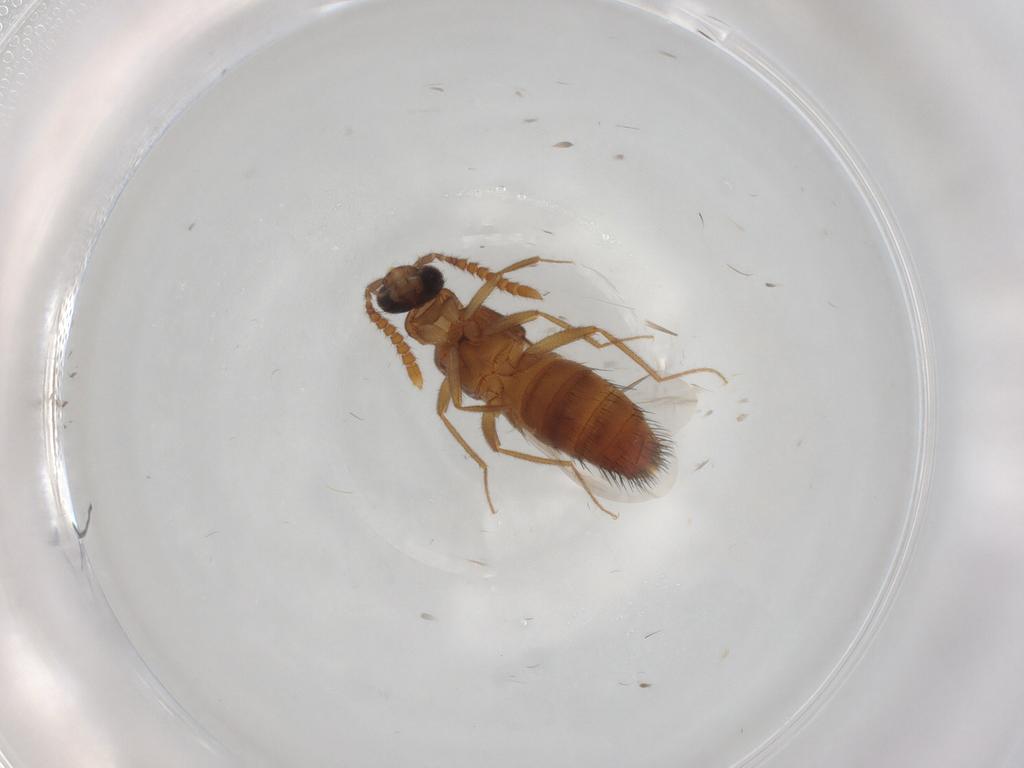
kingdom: Animalia
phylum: Arthropoda
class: Insecta
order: Coleoptera
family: Staphylinidae
